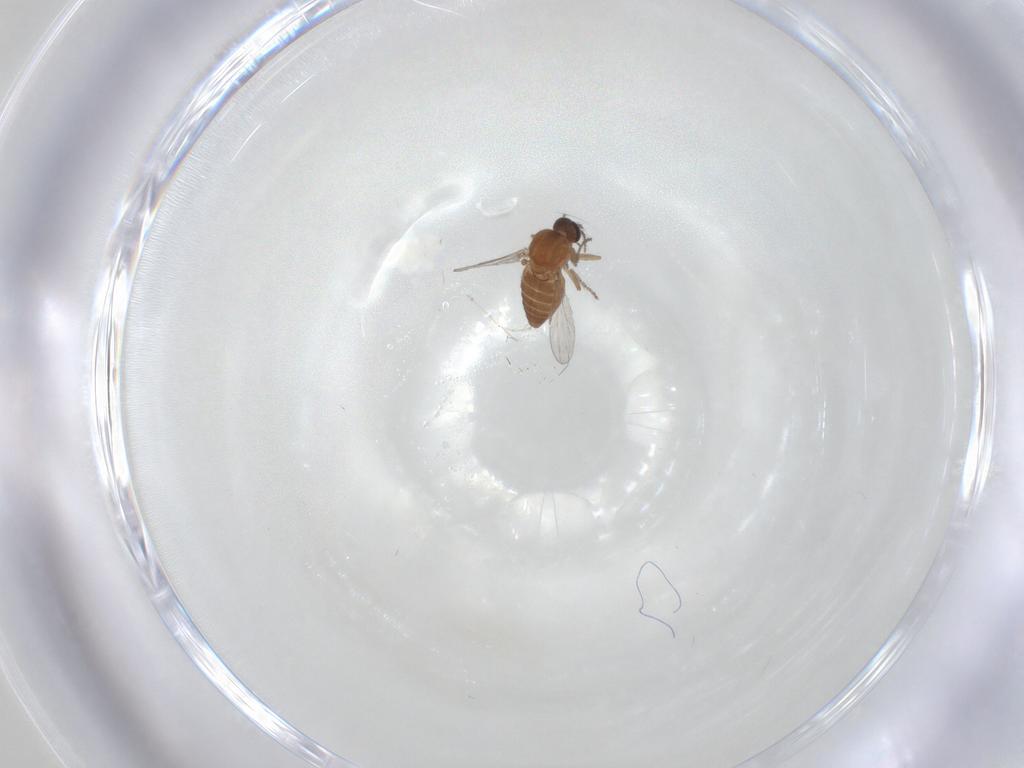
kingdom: Animalia
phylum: Arthropoda
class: Insecta
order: Diptera
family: Ceratopogonidae
